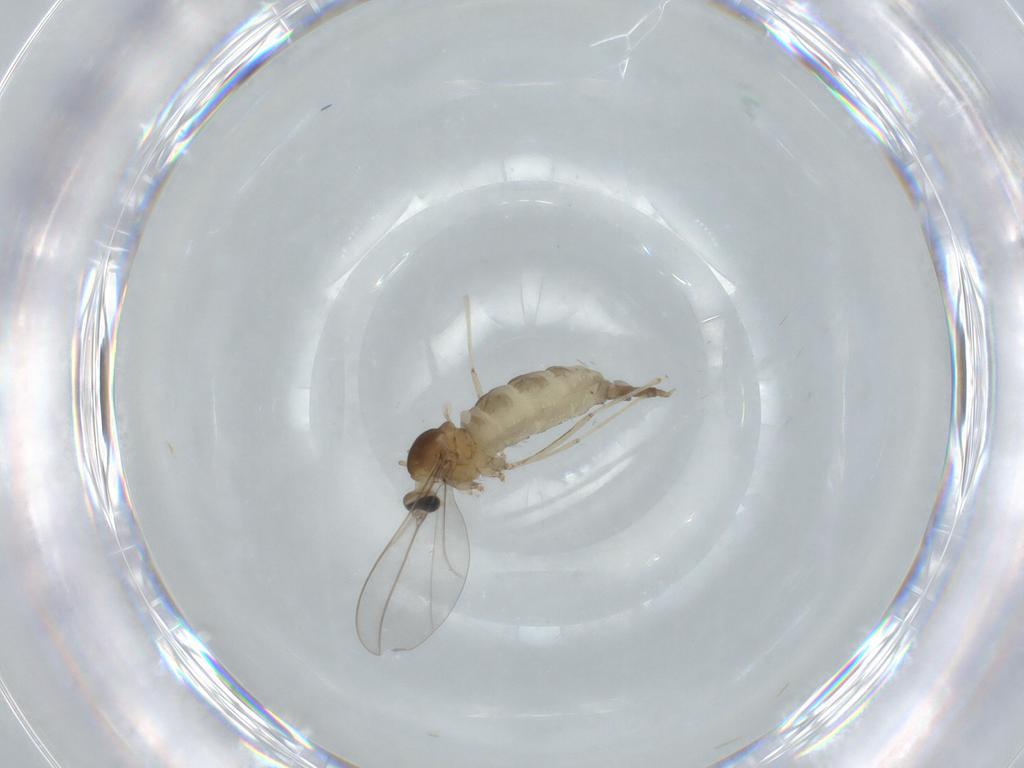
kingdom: Animalia
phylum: Arthropoda
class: Insecta
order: Diptera
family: Cecidomyiidae
